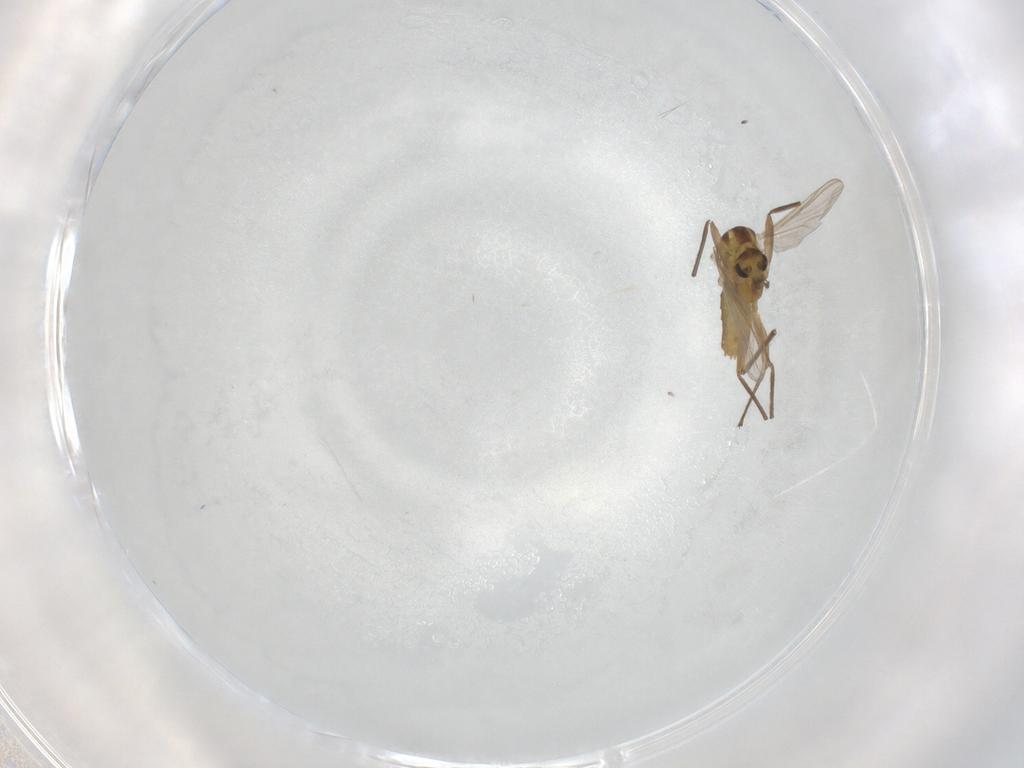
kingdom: Animalia
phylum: Arthropoda
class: Insecta
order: Diptera
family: Chironomidae
